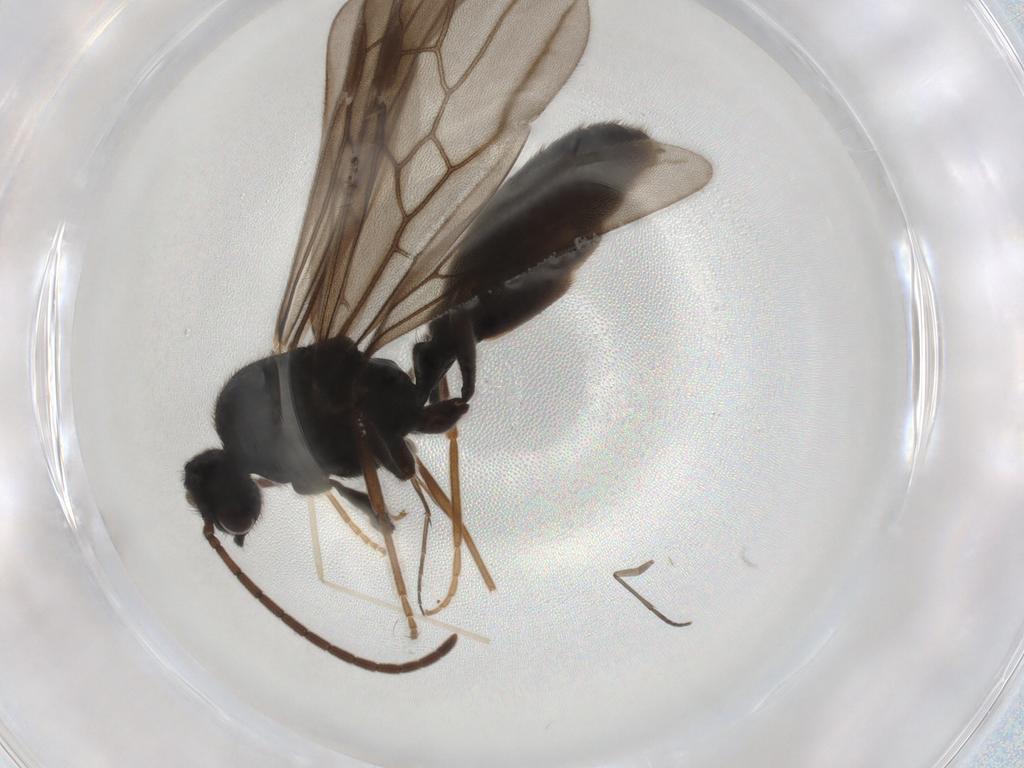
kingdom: Animalia
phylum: Arthropoda
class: Insecta
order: Hymenoptera
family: Formicidae
